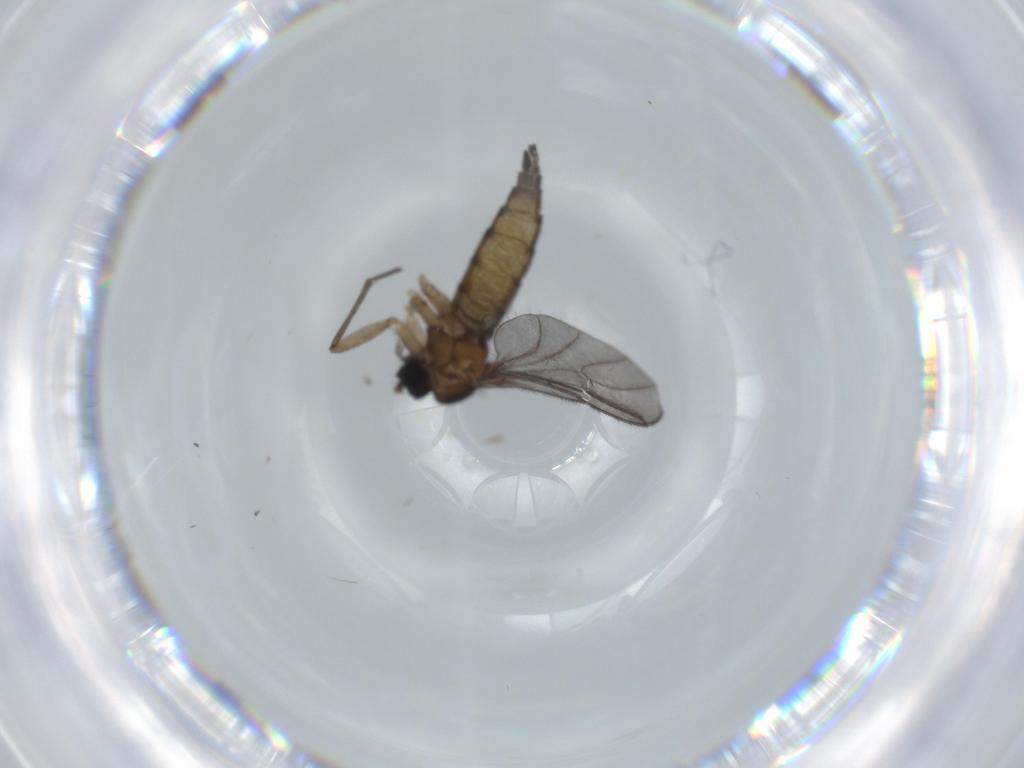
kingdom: Animalia
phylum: Arthropoda
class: Insecta
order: Diptera
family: Sciaridae
